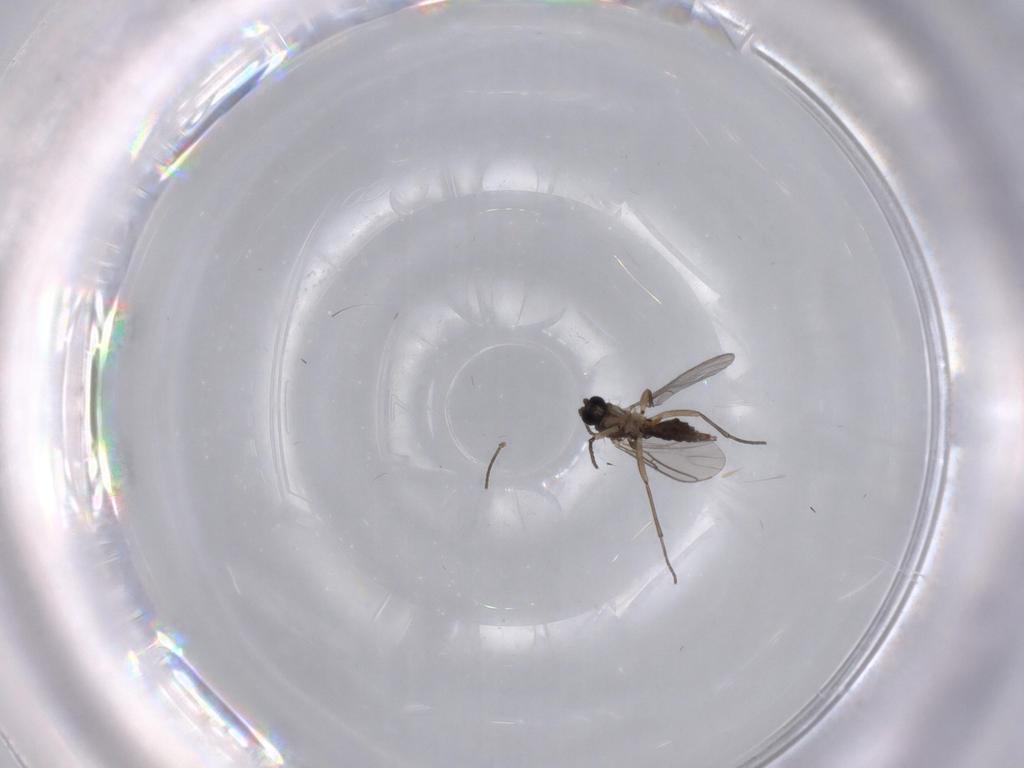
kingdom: Animalia
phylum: Arthropoda
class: Insecta
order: Diptera
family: Sciaridae
